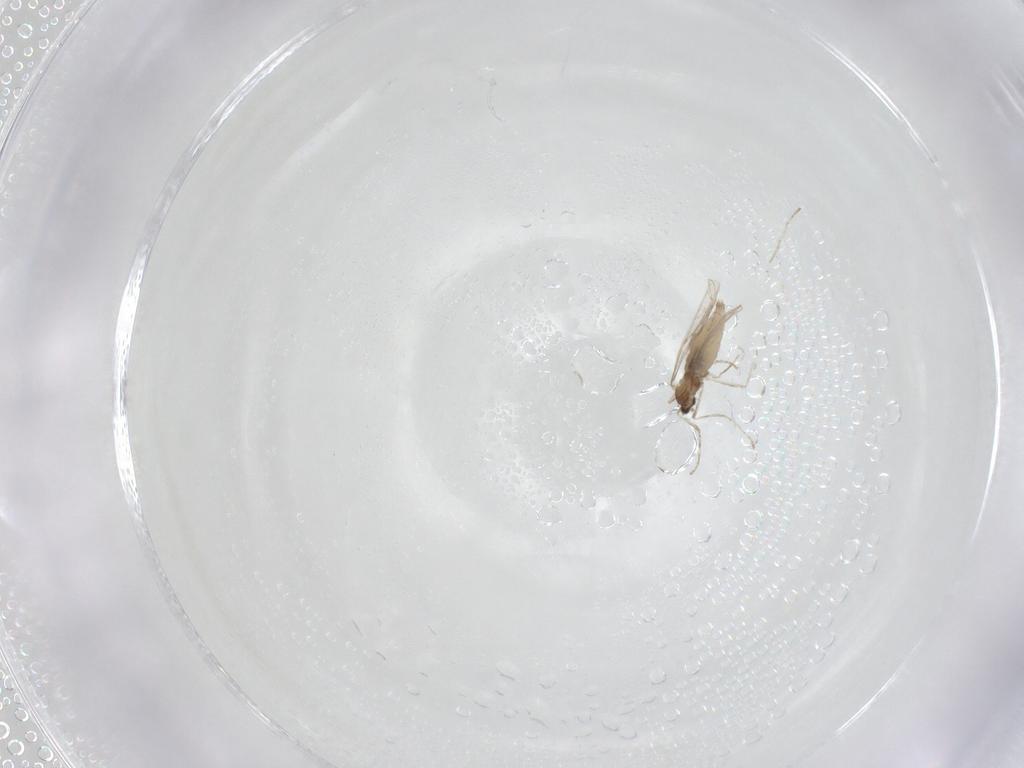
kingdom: Animalia
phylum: Arthropoda
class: Insecta
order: Diptera
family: Cecidomyiidae
